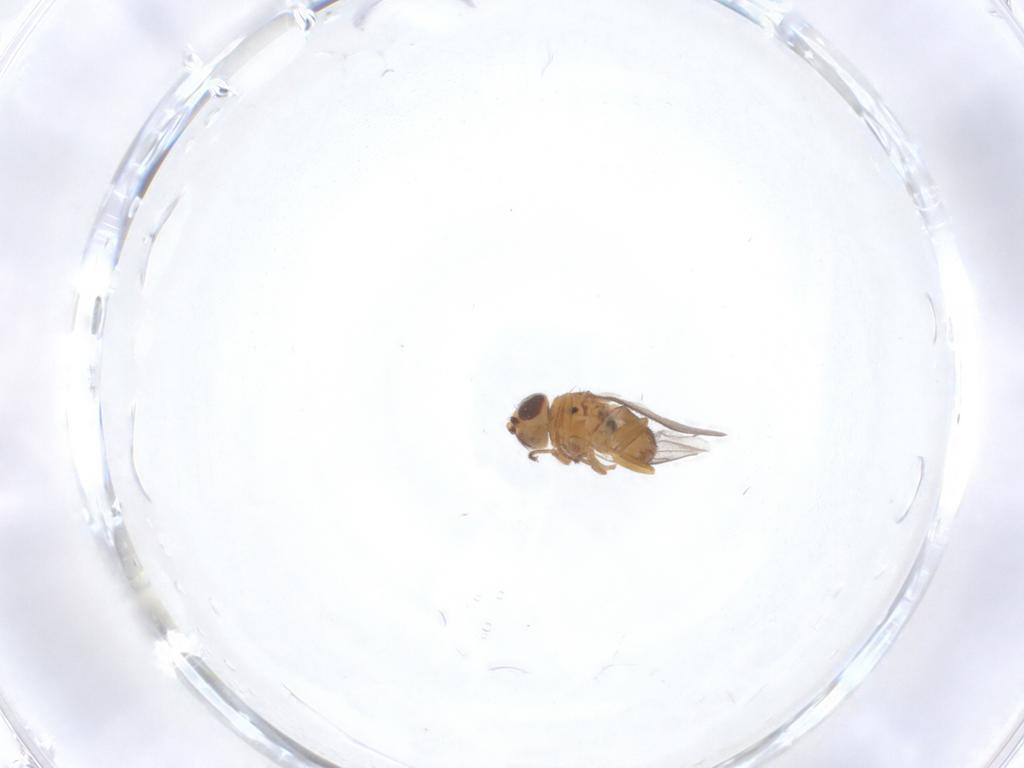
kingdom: Animalia
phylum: Arthropoda
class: Insecta
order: Diptera
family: Chloropidae
